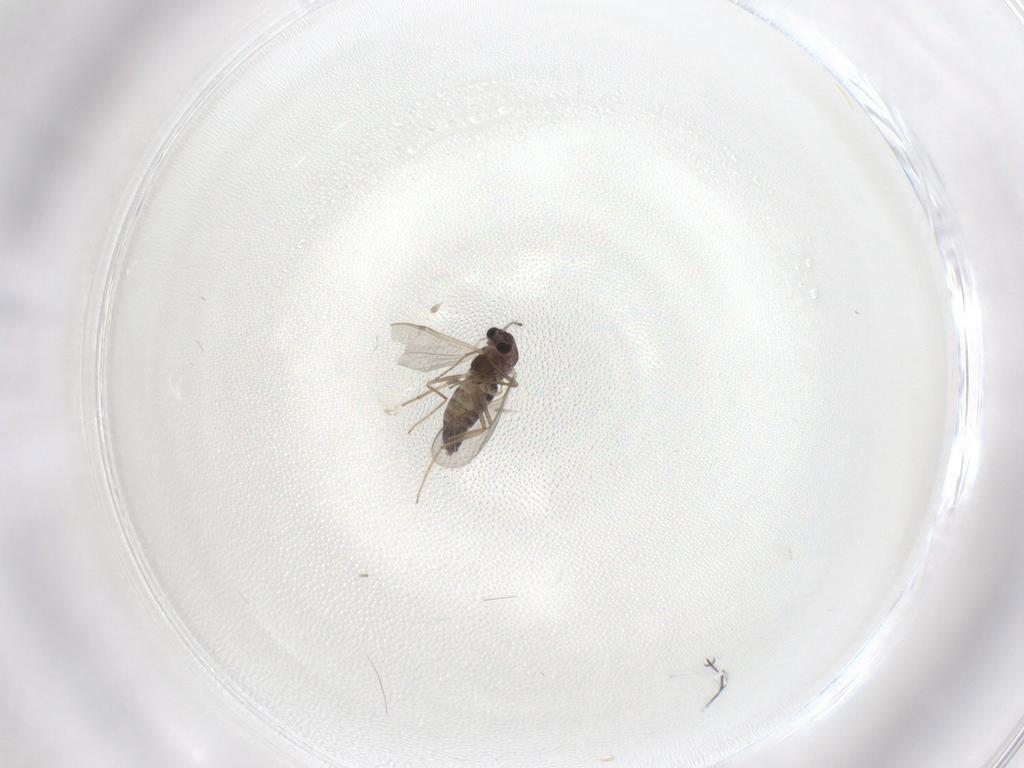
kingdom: Animalia
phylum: Arthropoda
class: Insecta
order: Diptera
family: Chironomidae
